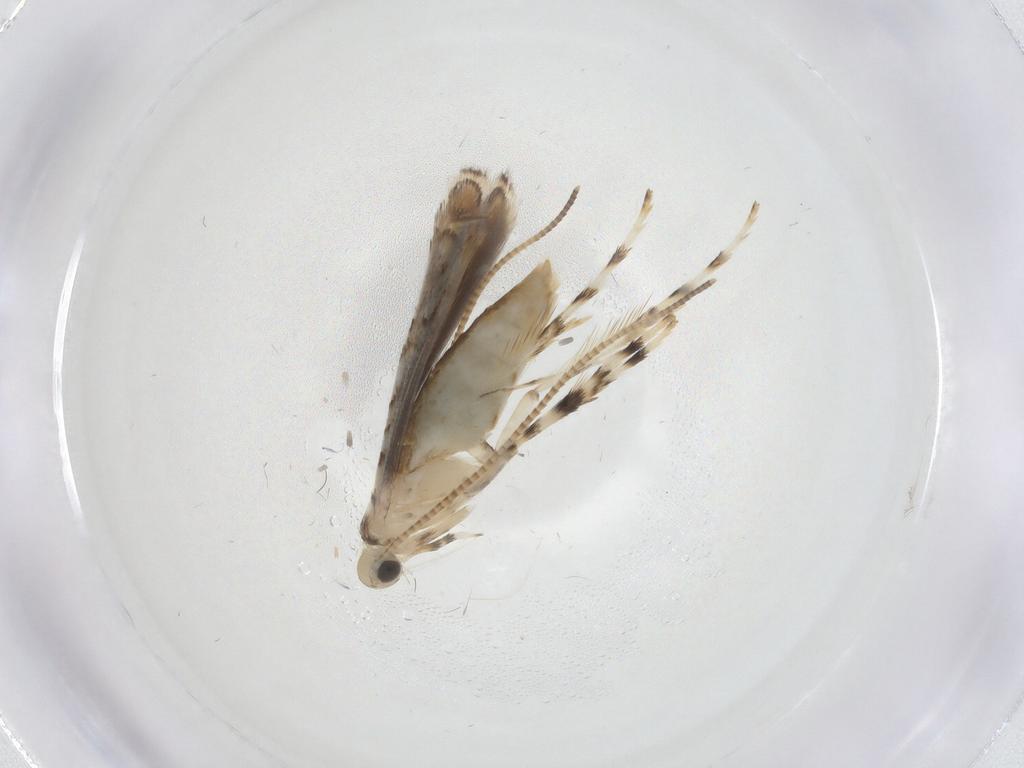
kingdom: Animalia
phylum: Arthropoda
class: Insecta
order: Lepidoptera
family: Gracillariidae
